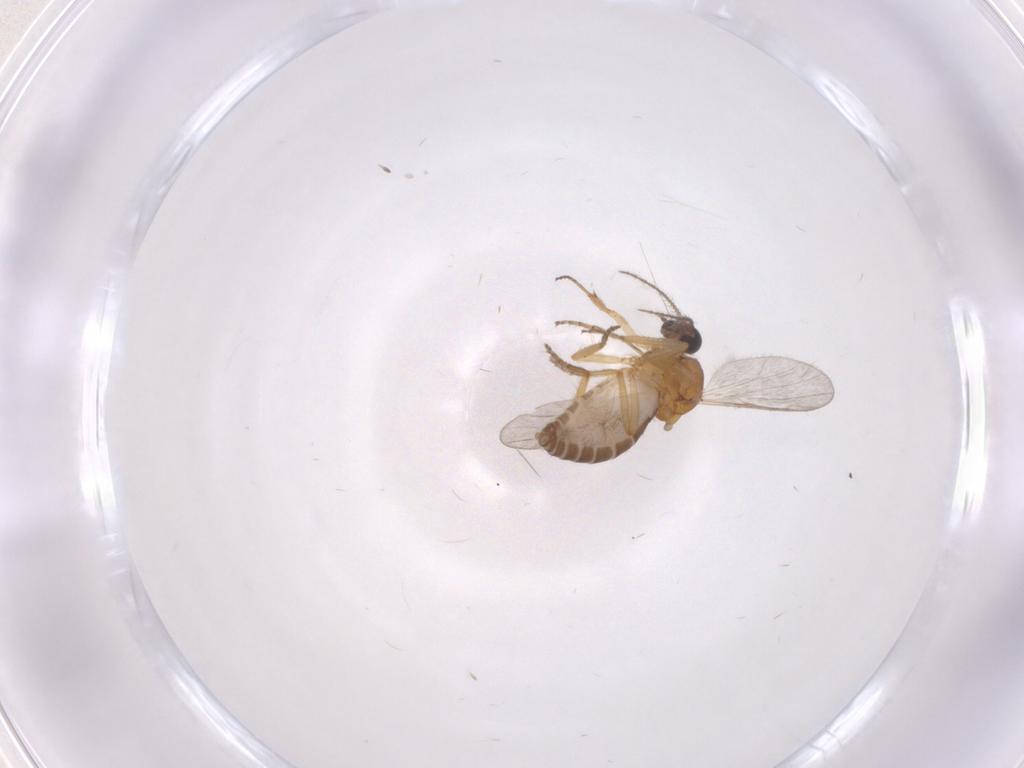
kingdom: Animalia
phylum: Arthropoda
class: Insecta
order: Diptera
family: Ceratopogonidae
